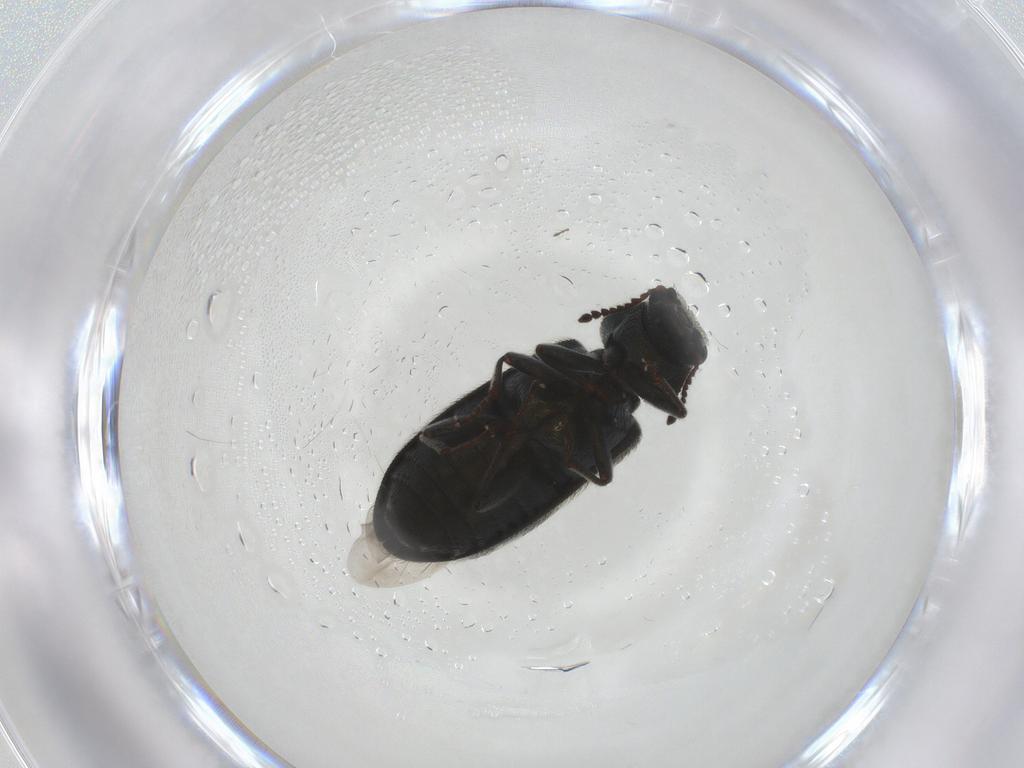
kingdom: Animalia
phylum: Arthropoda
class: Insecta
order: Coleoptera
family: Melyridae
